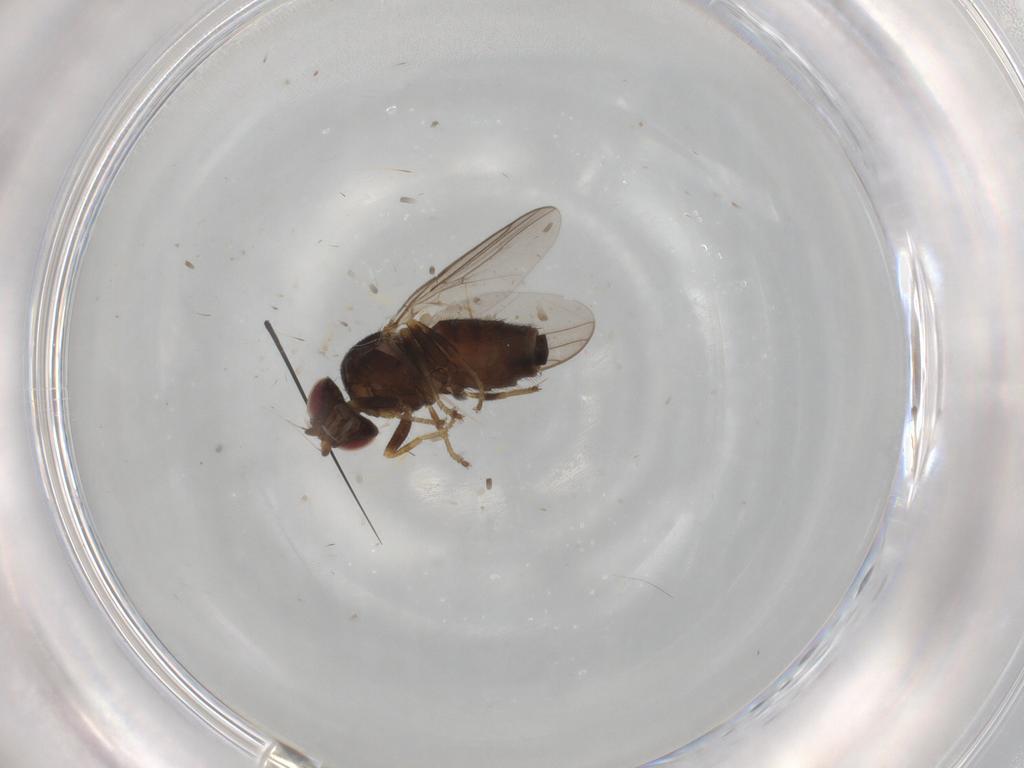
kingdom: Animalia
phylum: Arthropoda
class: Insecta
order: Diptera
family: Chloropidae
